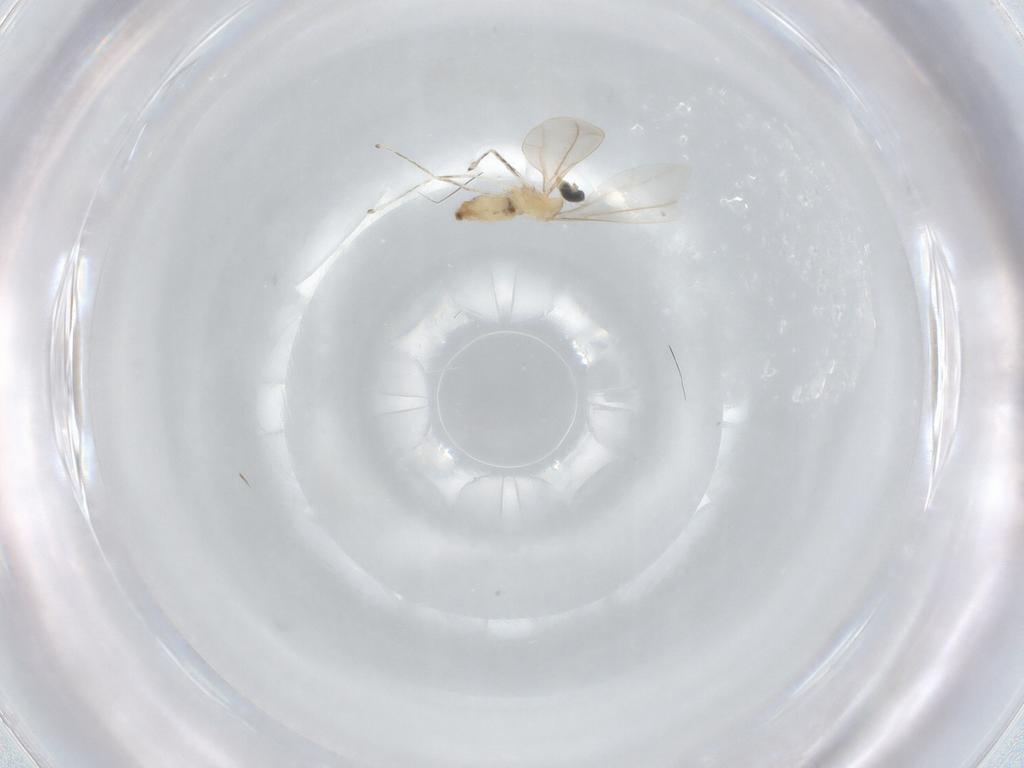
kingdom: Animalia
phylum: Arthropoda
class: Insecta
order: Diptera
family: Cecidomyiidae
